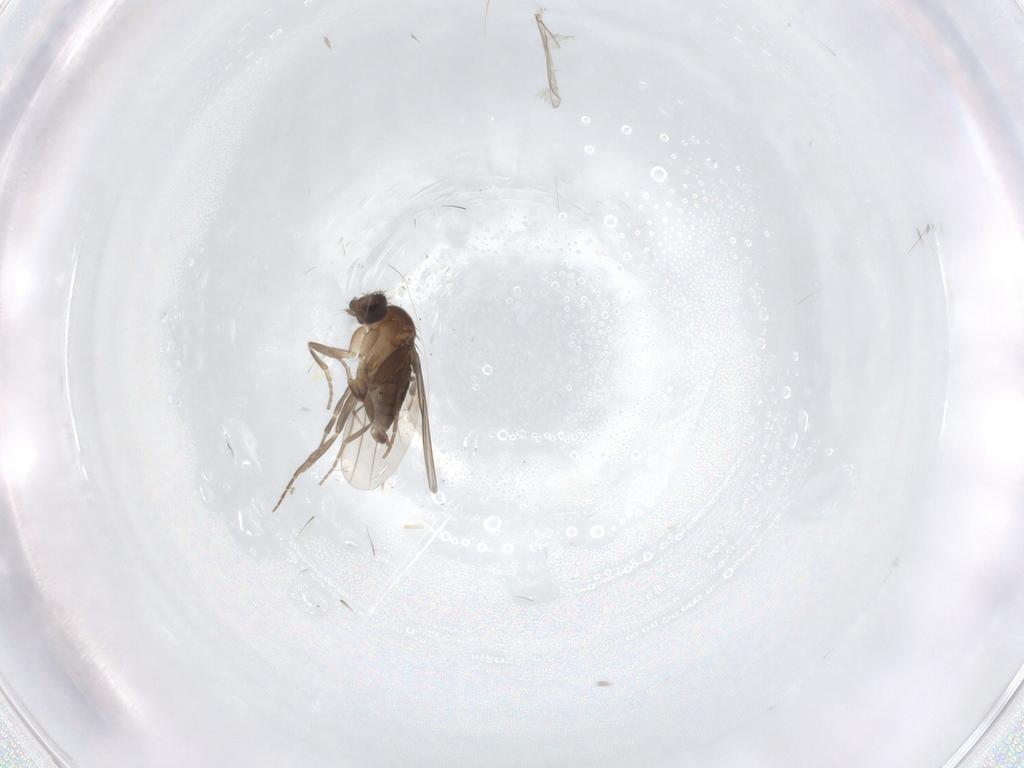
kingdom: Animalia
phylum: Arthropoda
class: Insecta
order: Diptera
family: Phoridae
